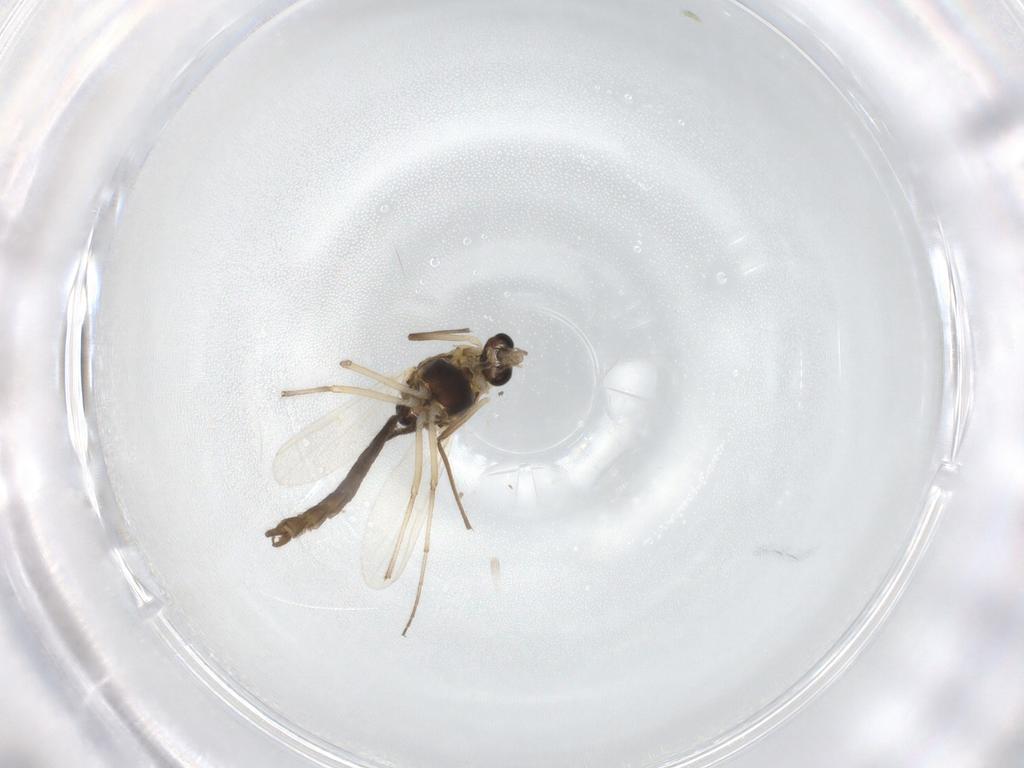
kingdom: Animalia
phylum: Arthropoda
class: Insecta
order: Diptera
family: Chironomidae
